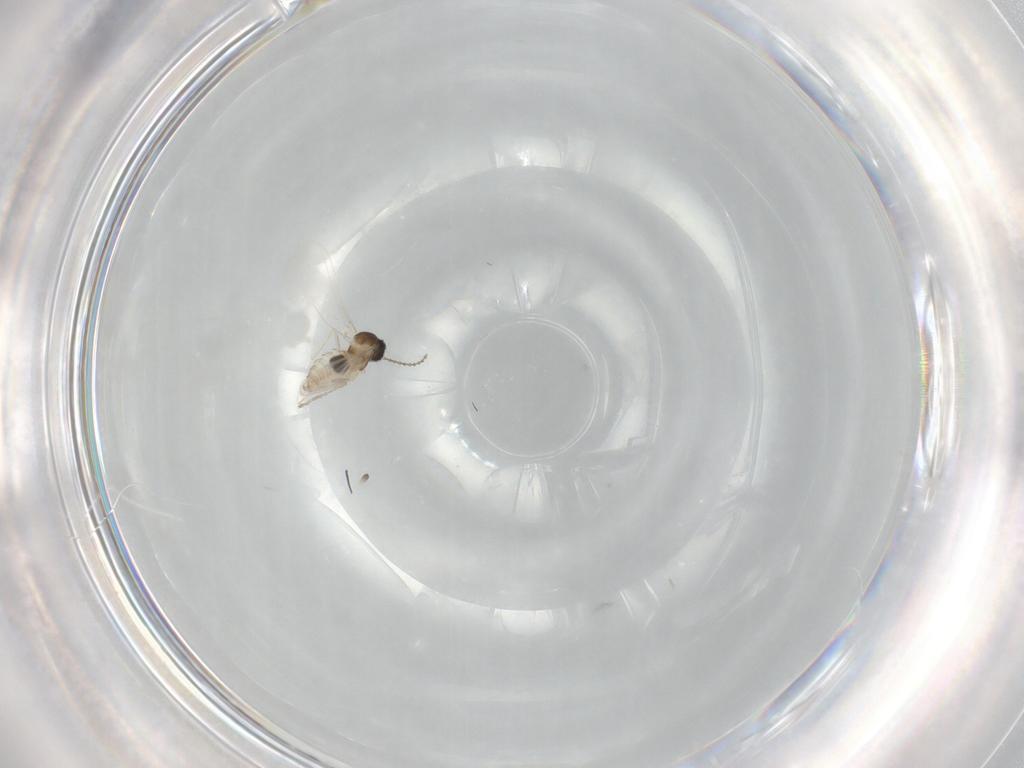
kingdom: Animalia
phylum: Arthropoda
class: Insecta
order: Diptera
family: Cecidomyiidae
